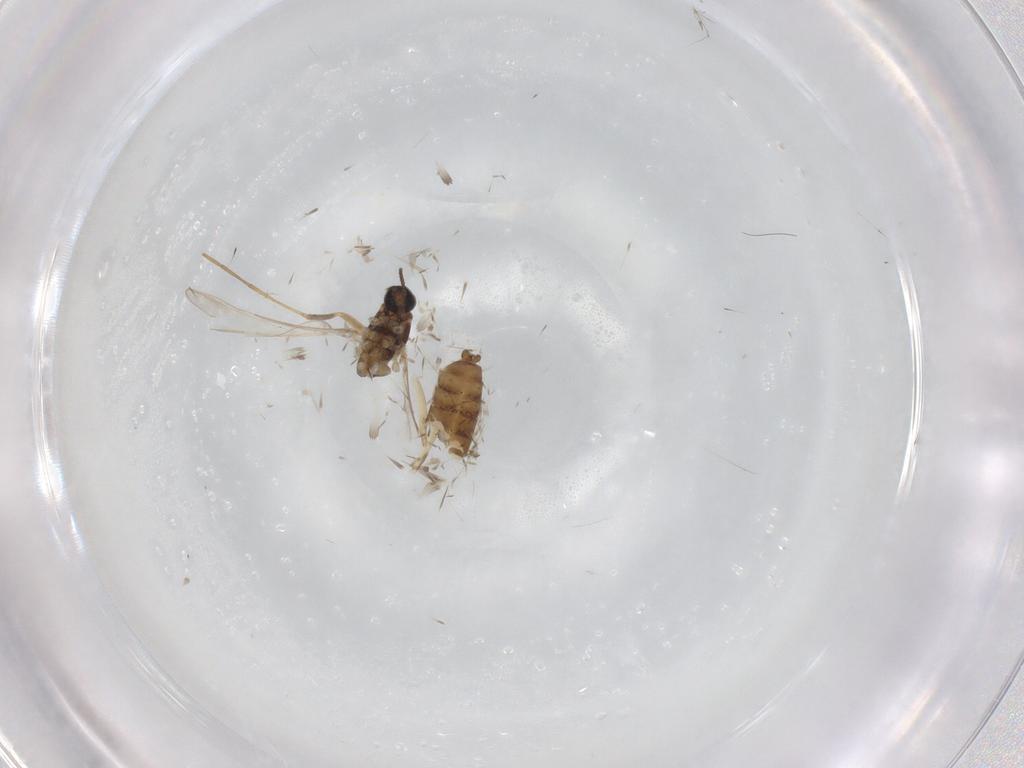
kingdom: Animalia
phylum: Arthropoda
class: Insecta
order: Diptera
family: Cecidomyiidae
